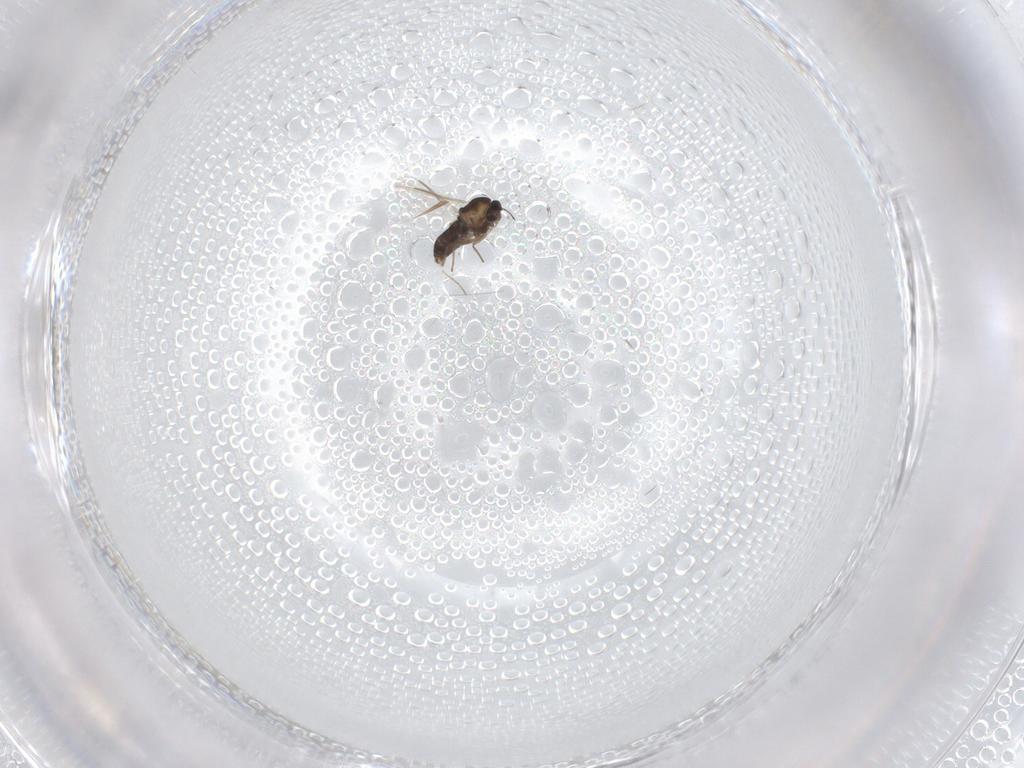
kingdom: Animalia
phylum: Arthropoda
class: Insecta
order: Diptera
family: Chironomidae
